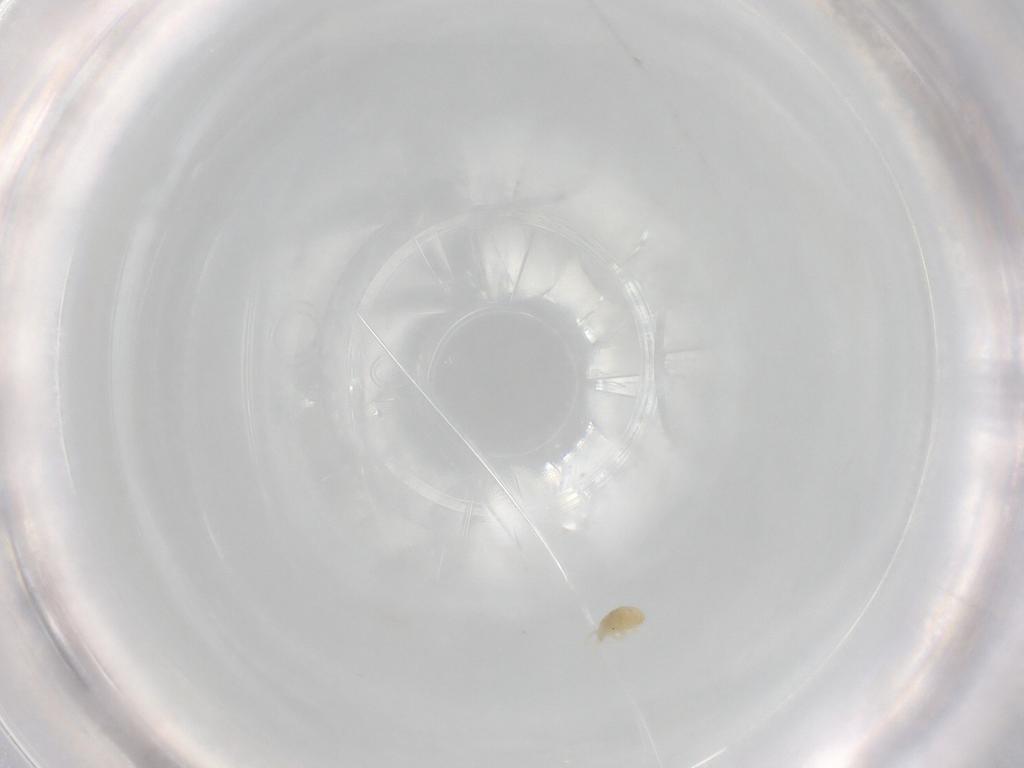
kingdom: Animalia
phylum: Arthropoda
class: Arachnida
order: Trombidiformes
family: Eupodidae
